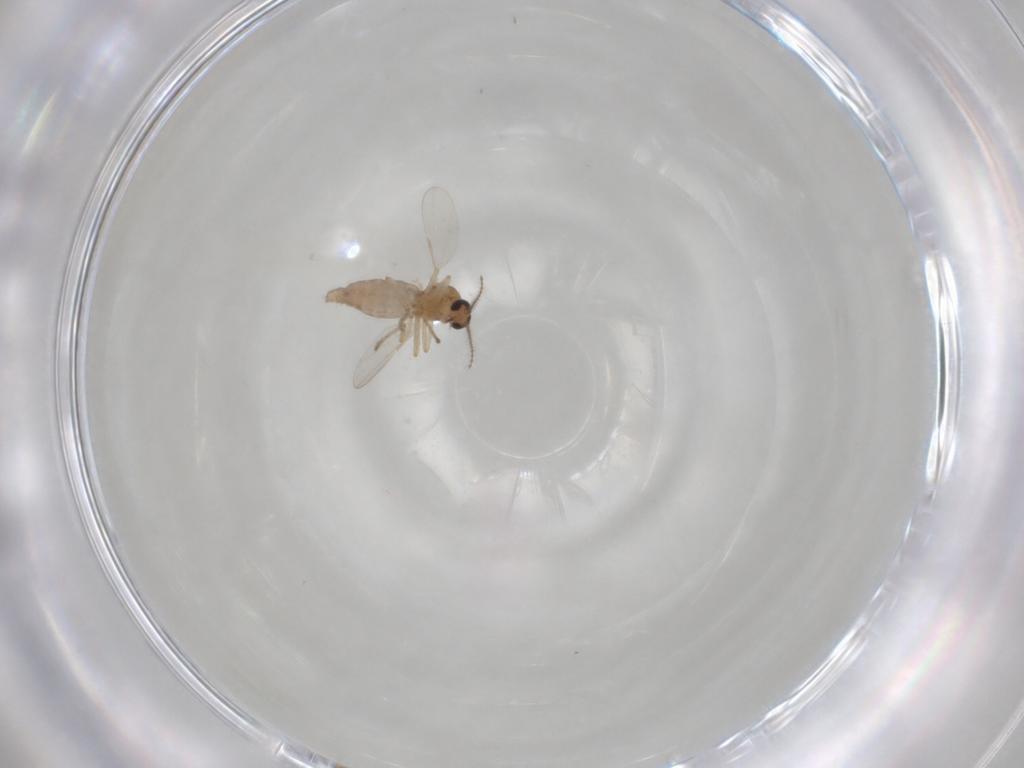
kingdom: Animalia
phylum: Arthropoda
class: Insecta
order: Diptera
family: Ceratopogonidae
